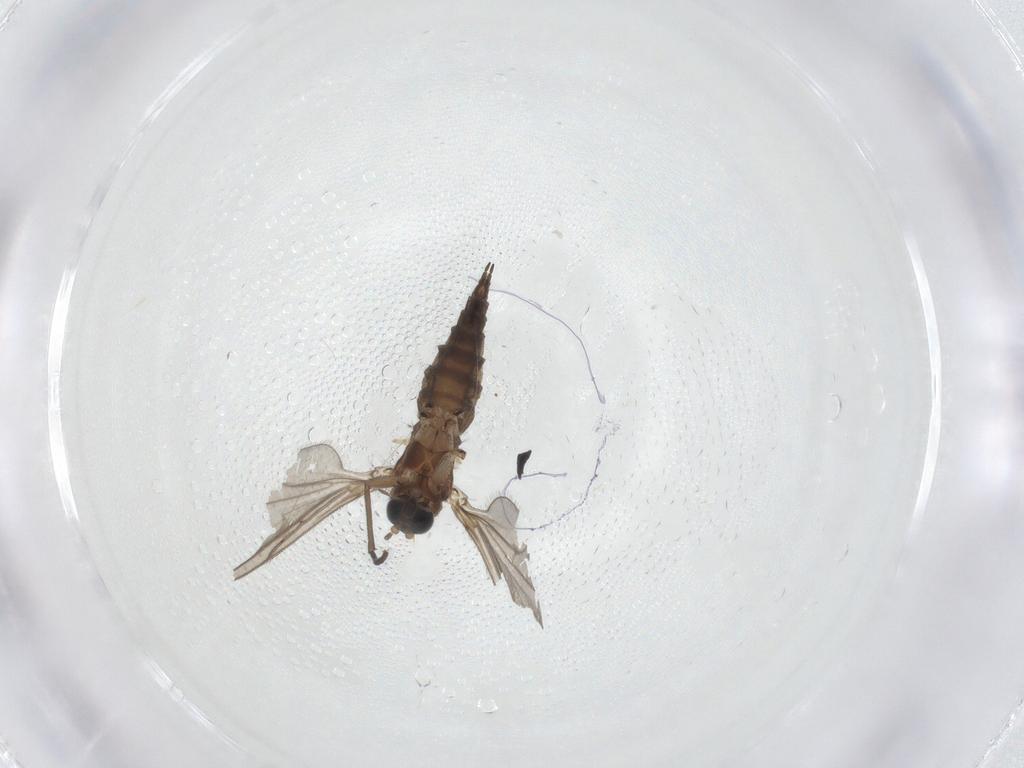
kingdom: Animalia
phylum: Arthropoda
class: Insecta
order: Diptera
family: Sciaridae
